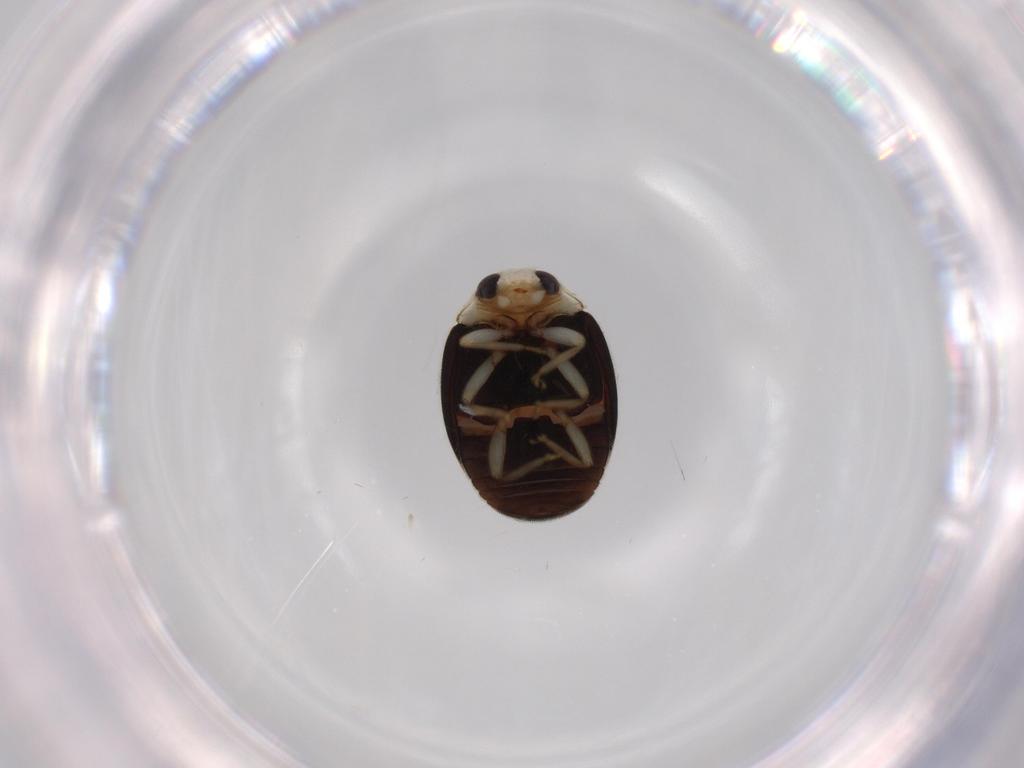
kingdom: Animalia
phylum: Arthropoda
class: Insecta
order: Coleoptera
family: Coccinellidae
